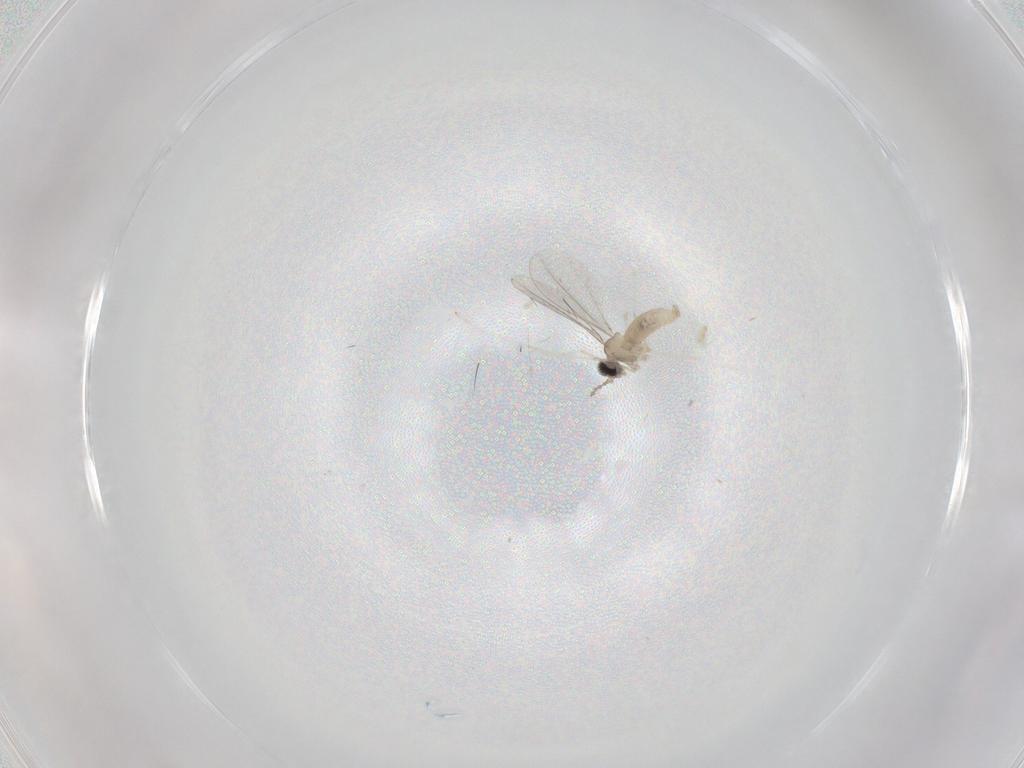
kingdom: Animalia
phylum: Arthropoda
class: Insecta
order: Diptera
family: Cecidomyiidae
